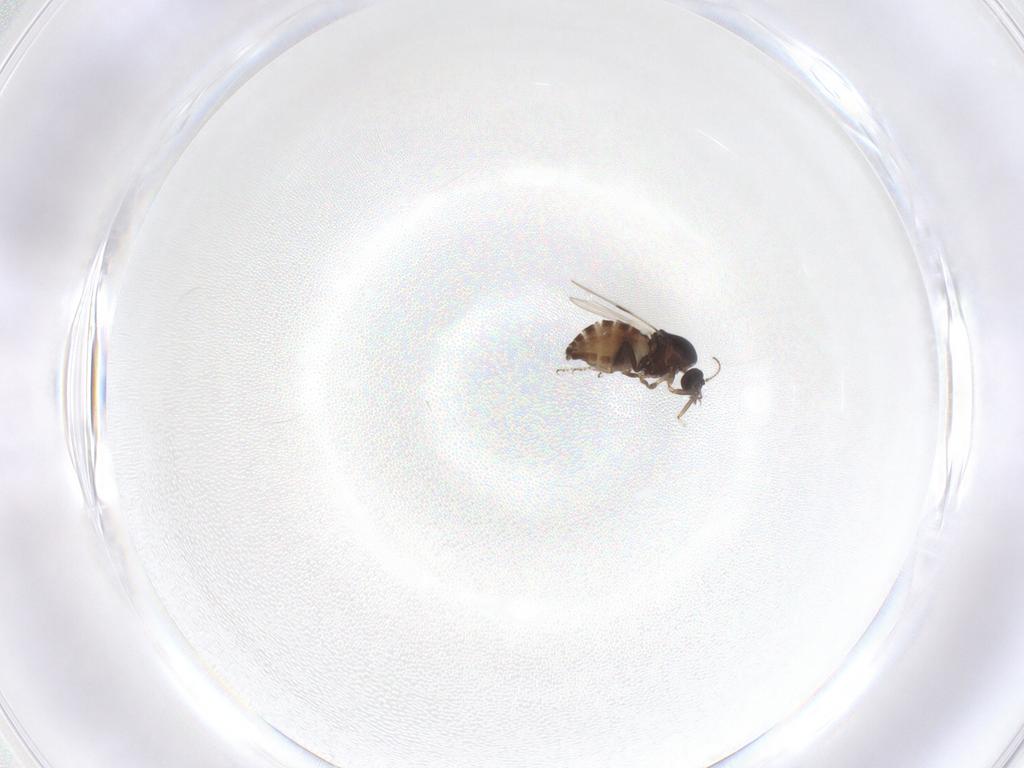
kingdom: Animalia
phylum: Arthropoda
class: Insecta
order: Diptera
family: Ceratopogonidae
